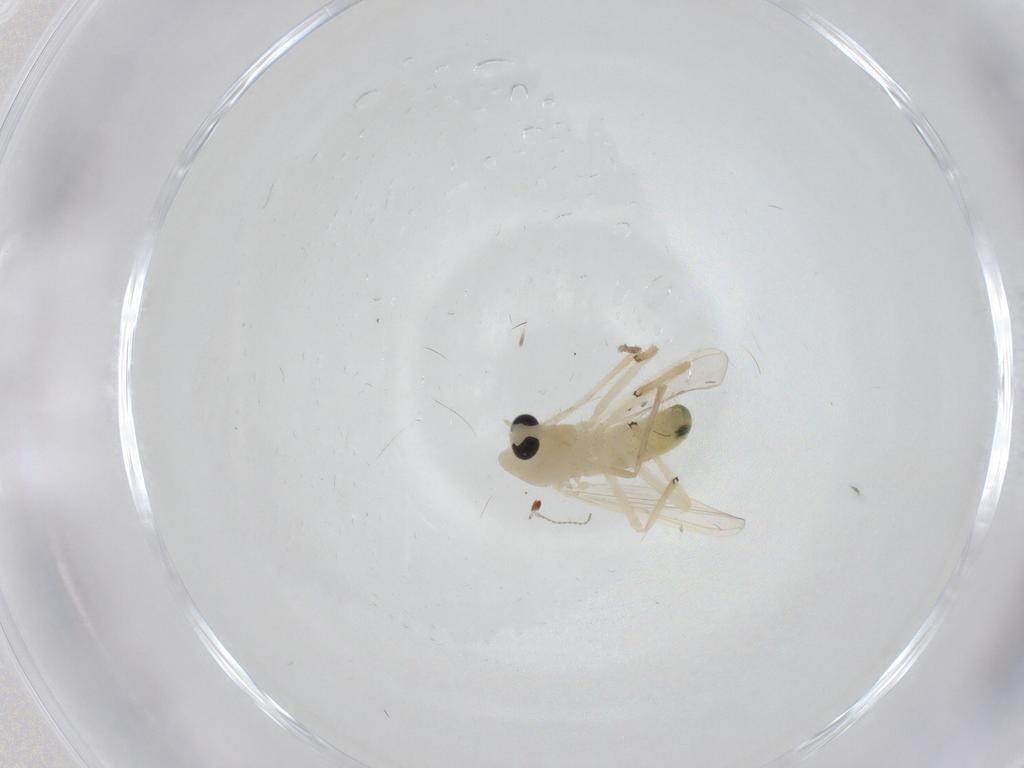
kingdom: Animalia
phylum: Arthropoda
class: Insecta
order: Diptera
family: Chironomidae
